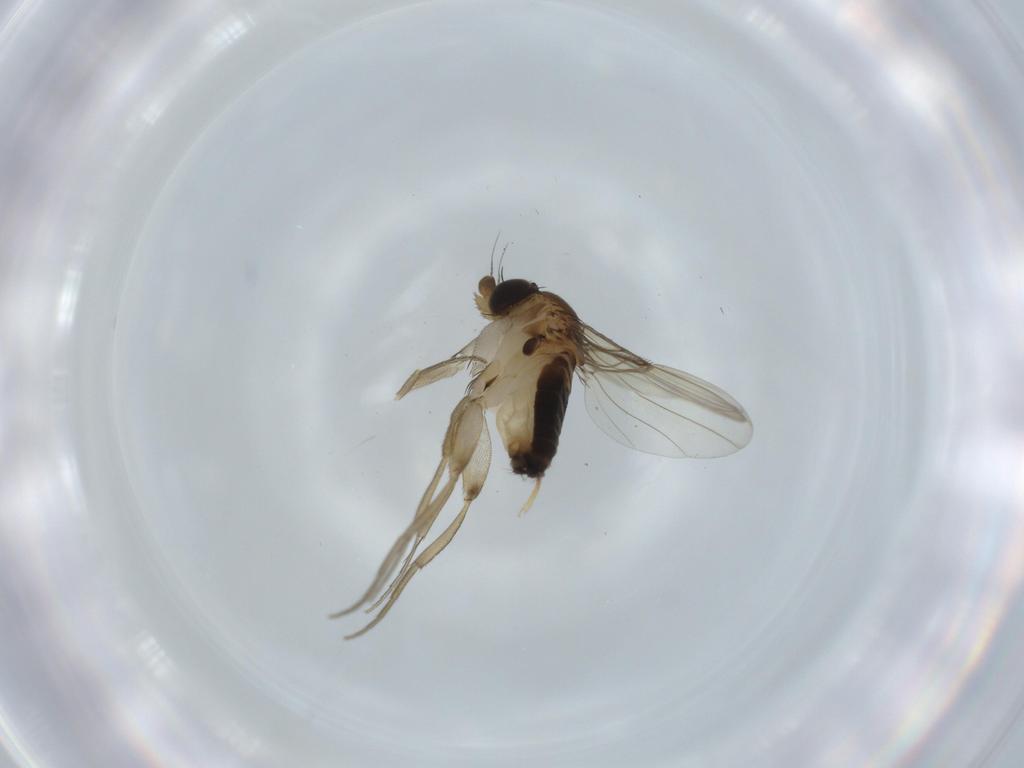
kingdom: Animalia
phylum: Arthropoda
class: Insecta
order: Diptera
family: Phoridae
